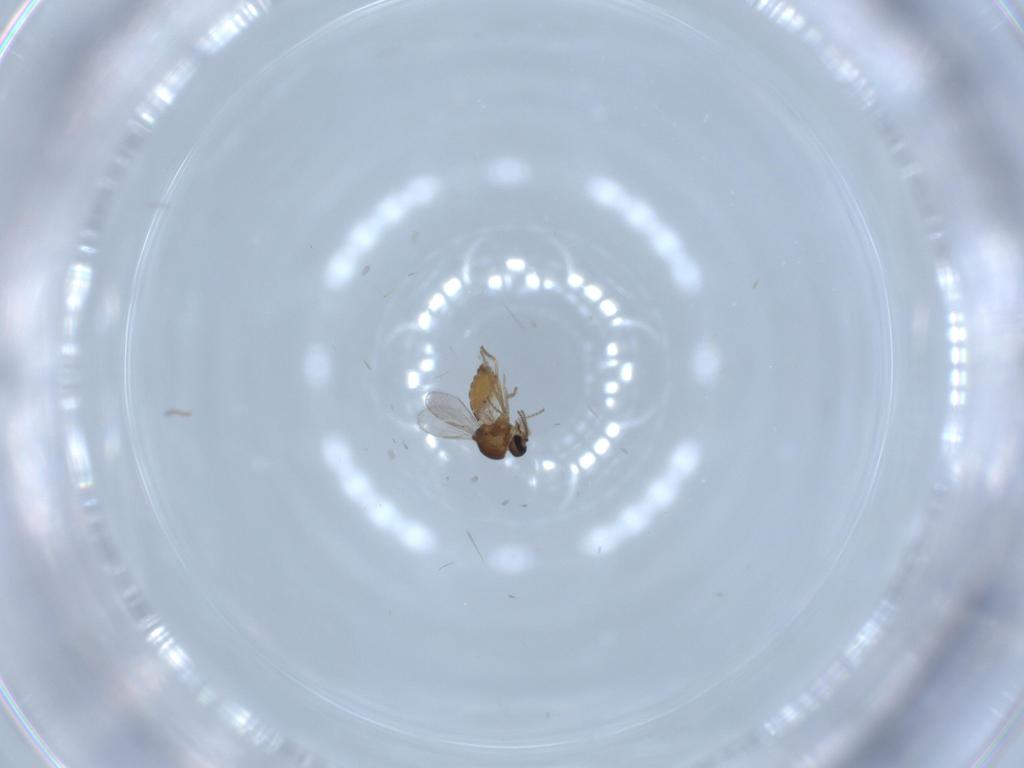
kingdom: Animalia
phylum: Arthropoda
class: Insecta
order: Diptera
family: Ceratopogonidae
